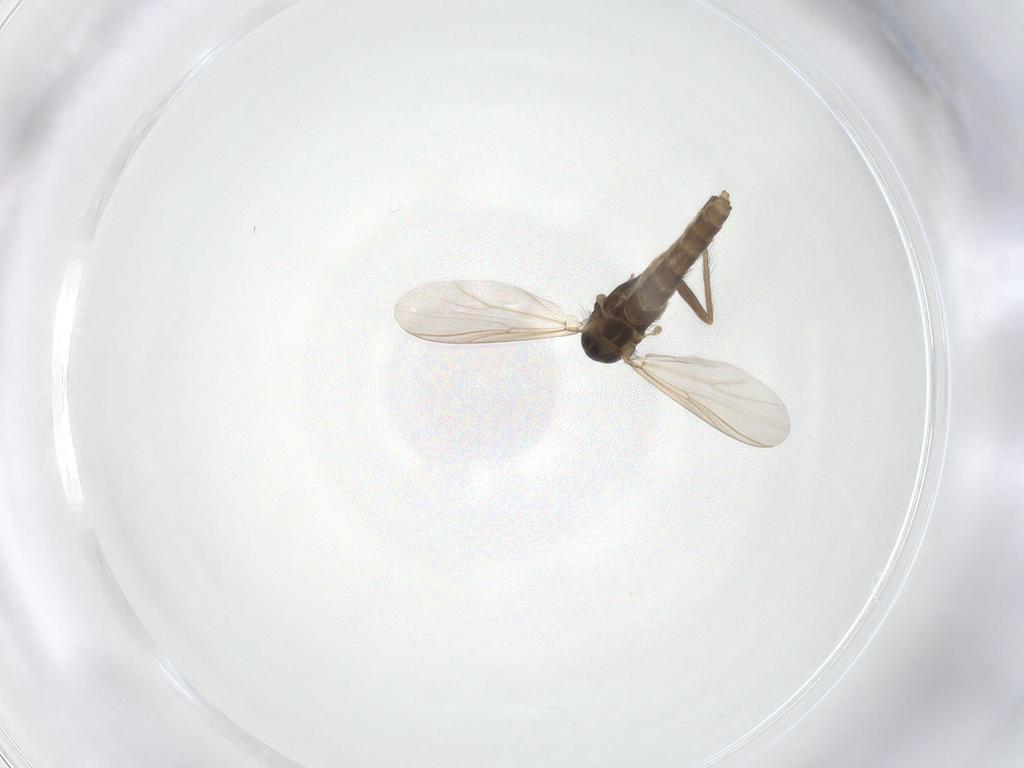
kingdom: Animalia
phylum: Arthropoda
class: Insecta
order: Diptera
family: Chironomidae
